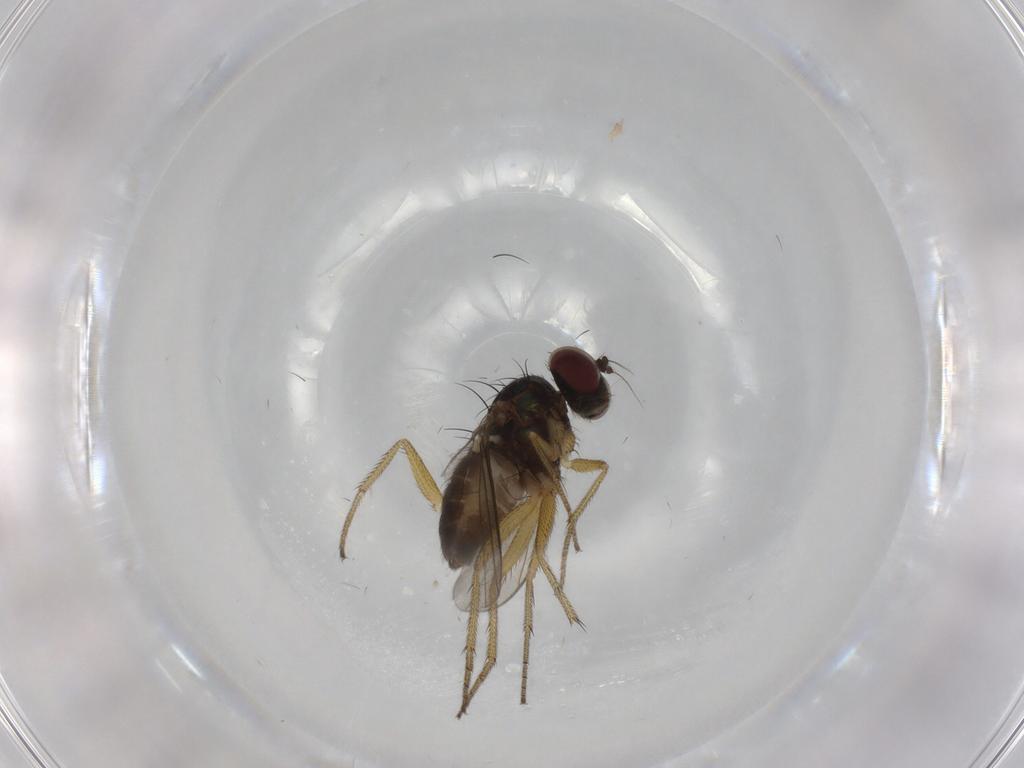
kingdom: Animalia
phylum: Arthropoda
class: Insecta
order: Diptera
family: Dolichopodidae
